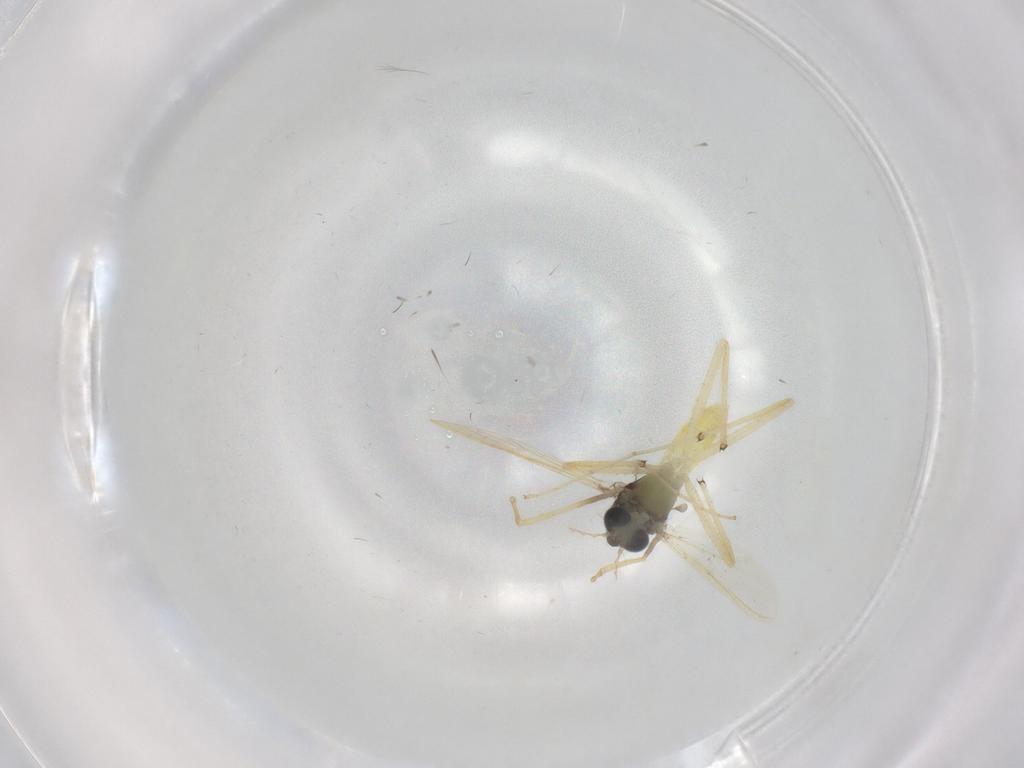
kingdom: Animalia
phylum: Arthropoda
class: Insecta
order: Diptera
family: Chironomidae
